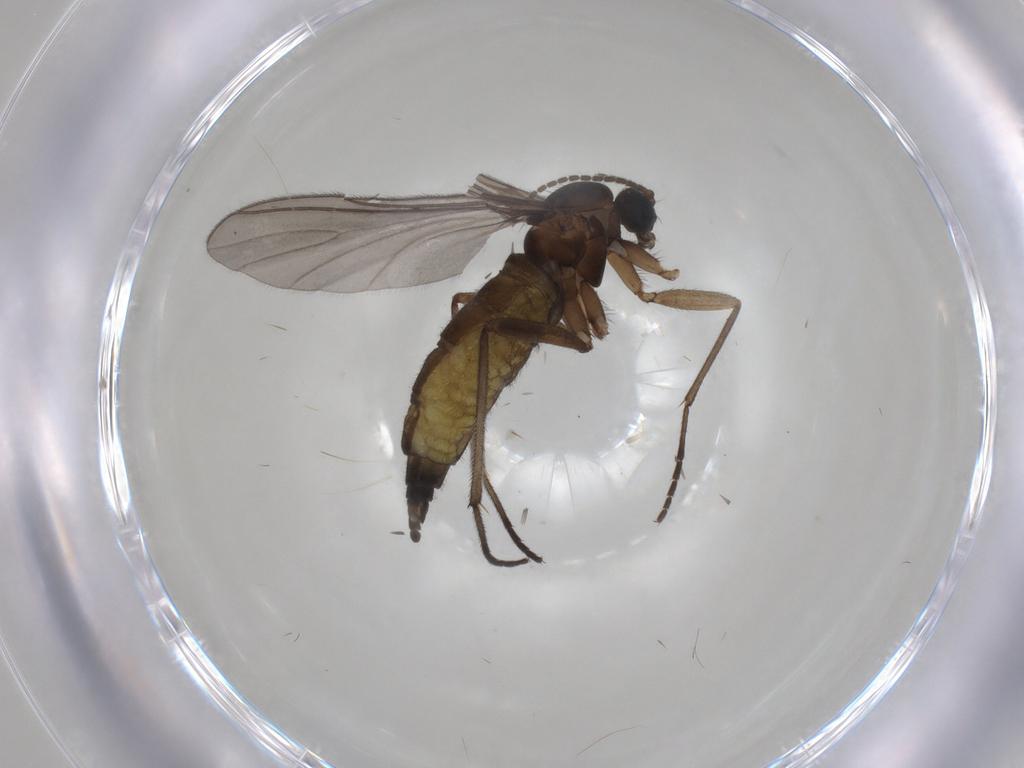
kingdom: Animalia
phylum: Arthropoda
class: Insecta
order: Diptera
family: Sciaridae
